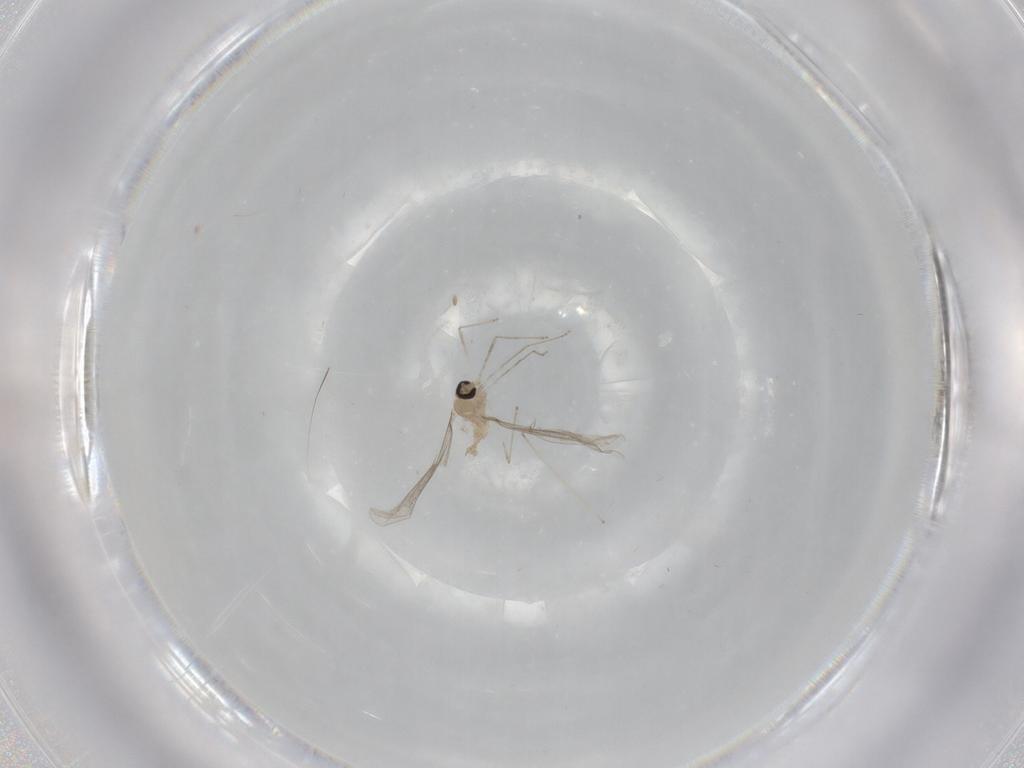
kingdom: Animalia
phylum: Arthropoda
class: Insecta
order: Diptera
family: Cecidomyiidae
